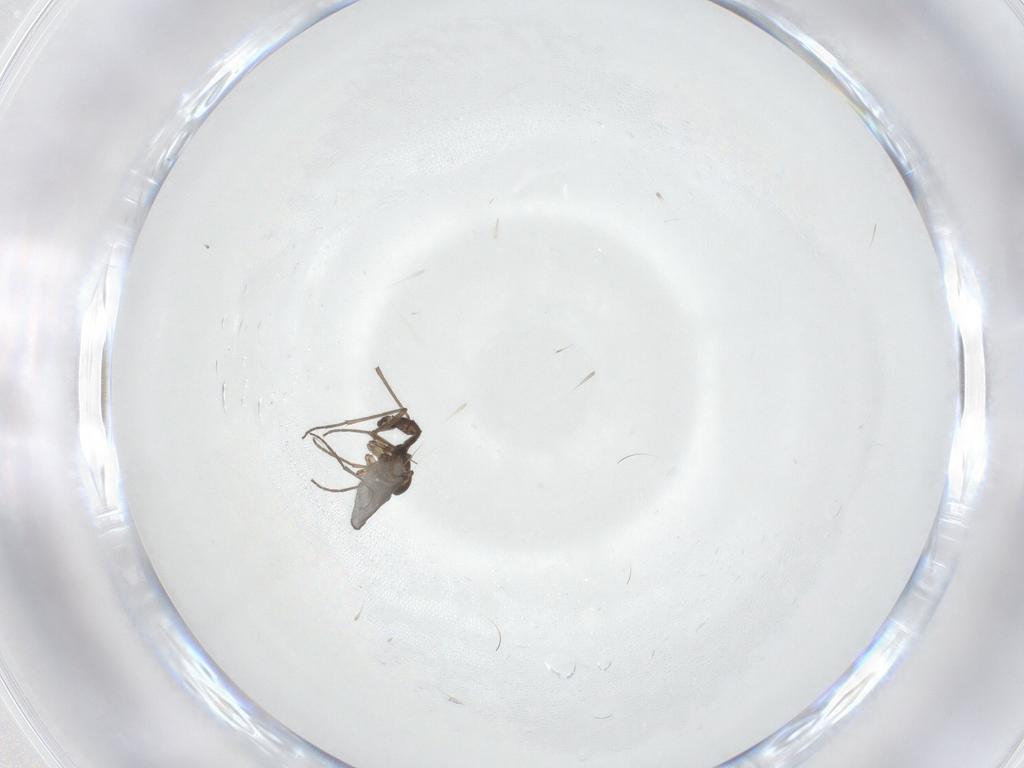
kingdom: Animalia
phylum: Arthropoda
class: Insecta
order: Diptera
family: Sciaridae
